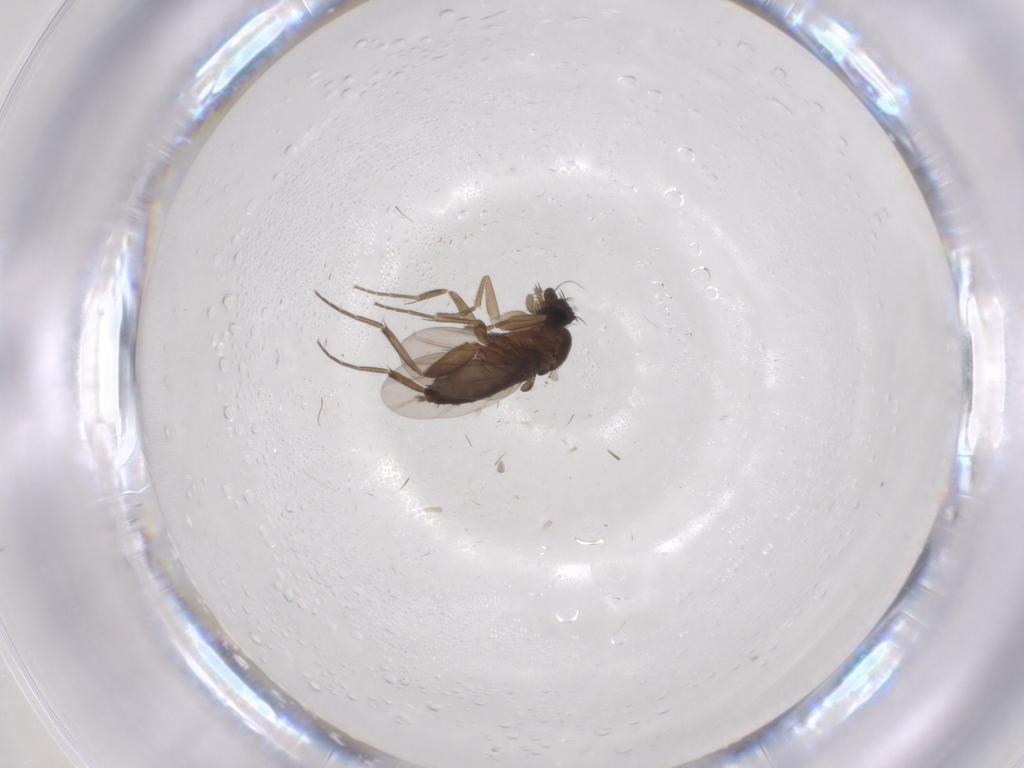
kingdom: Animalia
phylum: Arthropoda
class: Insecta
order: Diptera
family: Phoridae
